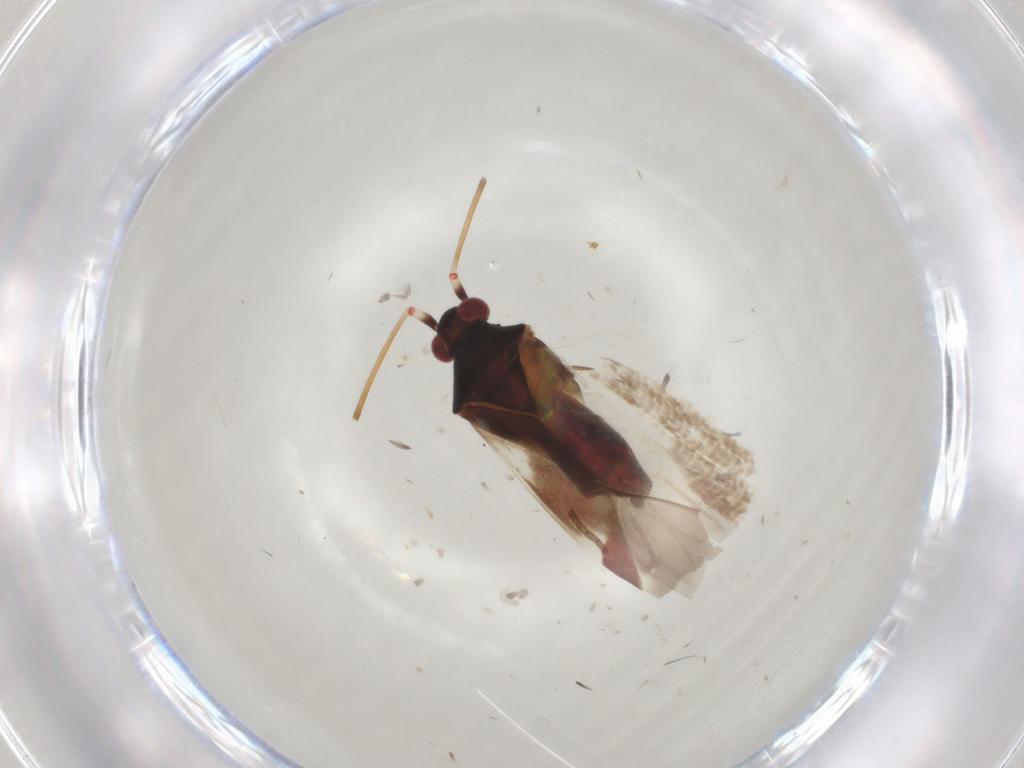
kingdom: Animalia
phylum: Arthropoda
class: Insecta
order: Hemiptera
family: Miridae
